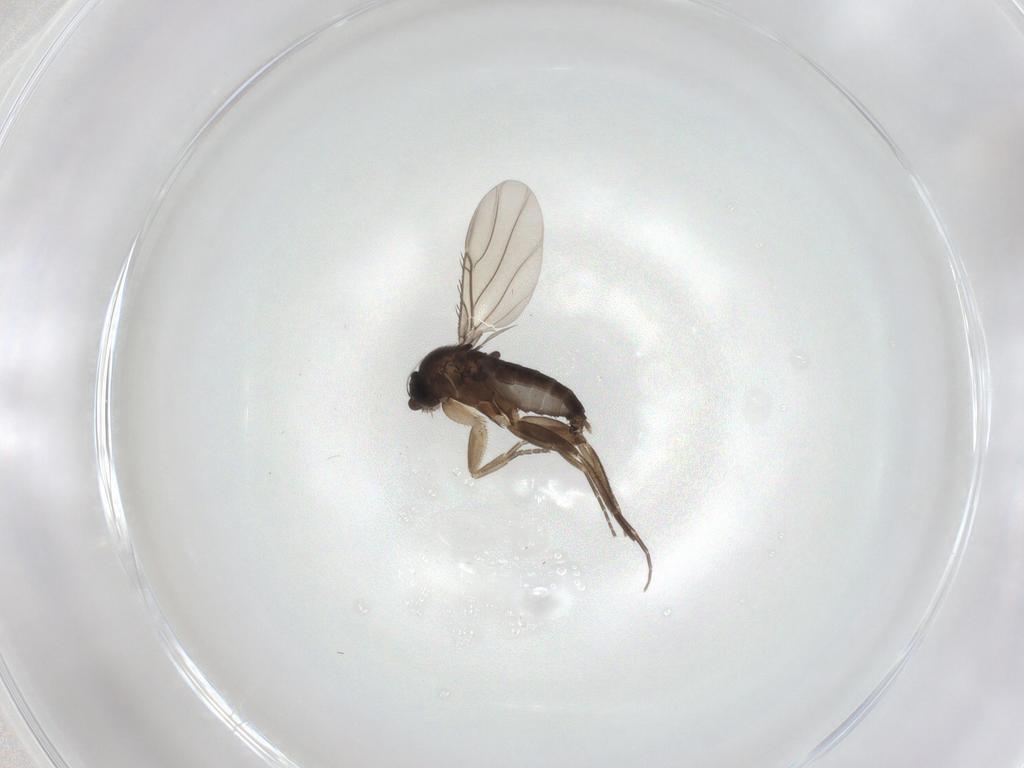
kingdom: Animalia
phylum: Arthropoda
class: Insecta
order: Diptera
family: Phoridae
